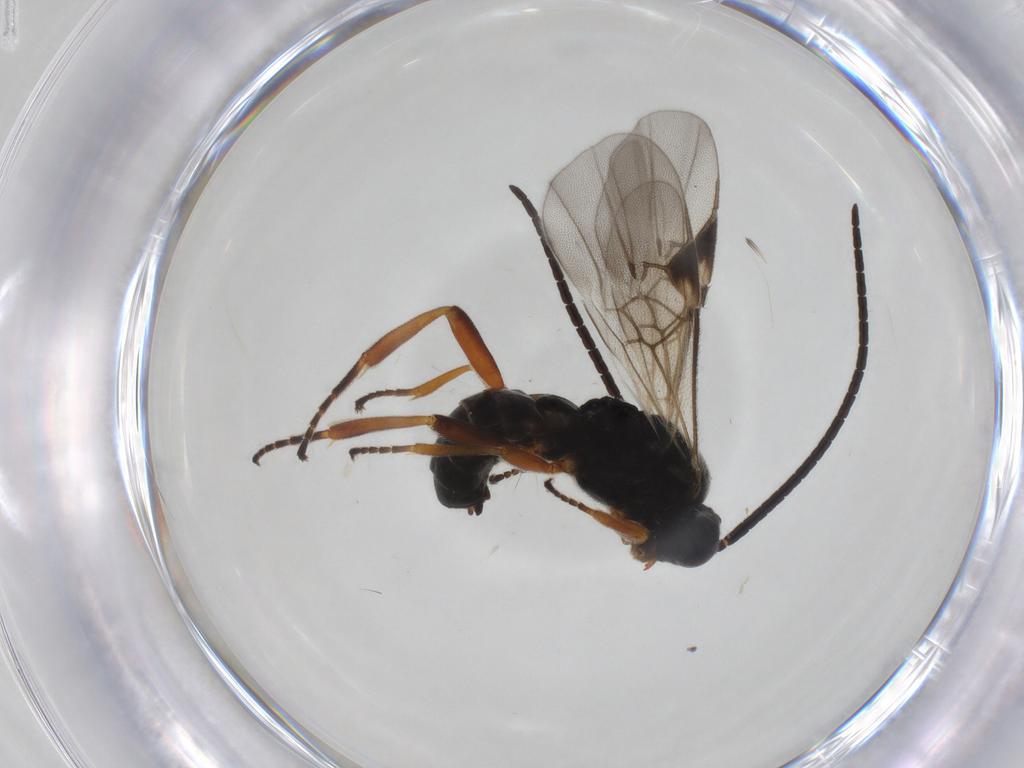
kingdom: Animalia
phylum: Arthropoda
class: Insecta
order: Hymenoptera
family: Braconidae
